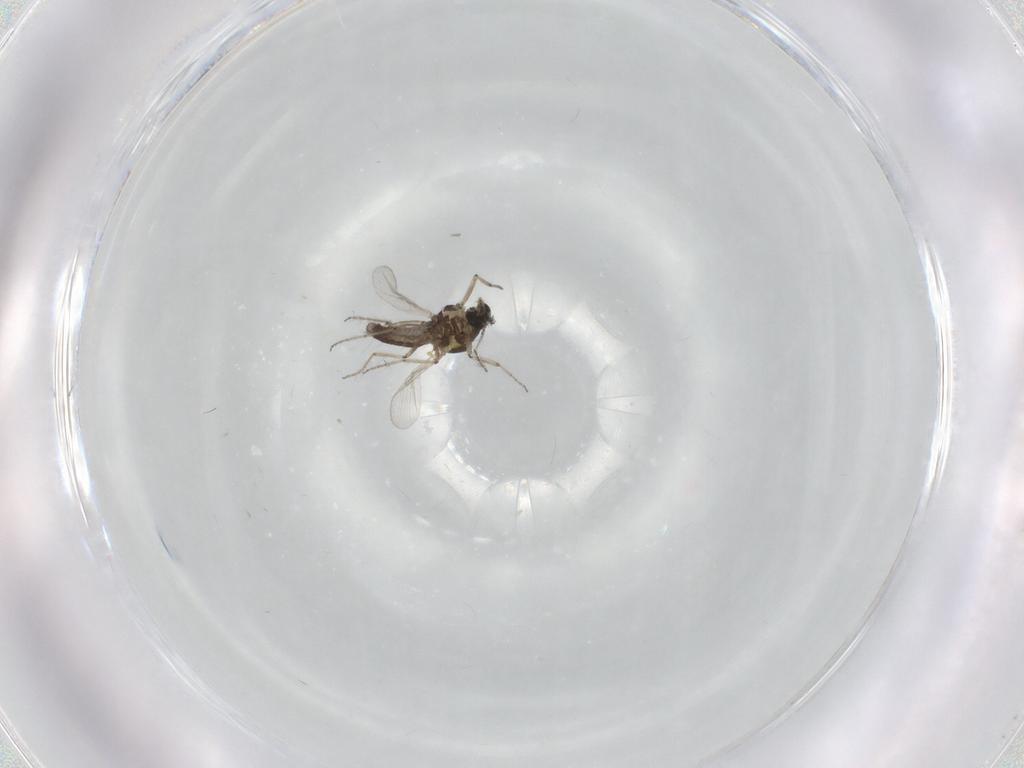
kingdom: Animalia
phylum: Arthropoda
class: Insecta
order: Diptera
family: Ceratopogonidae
